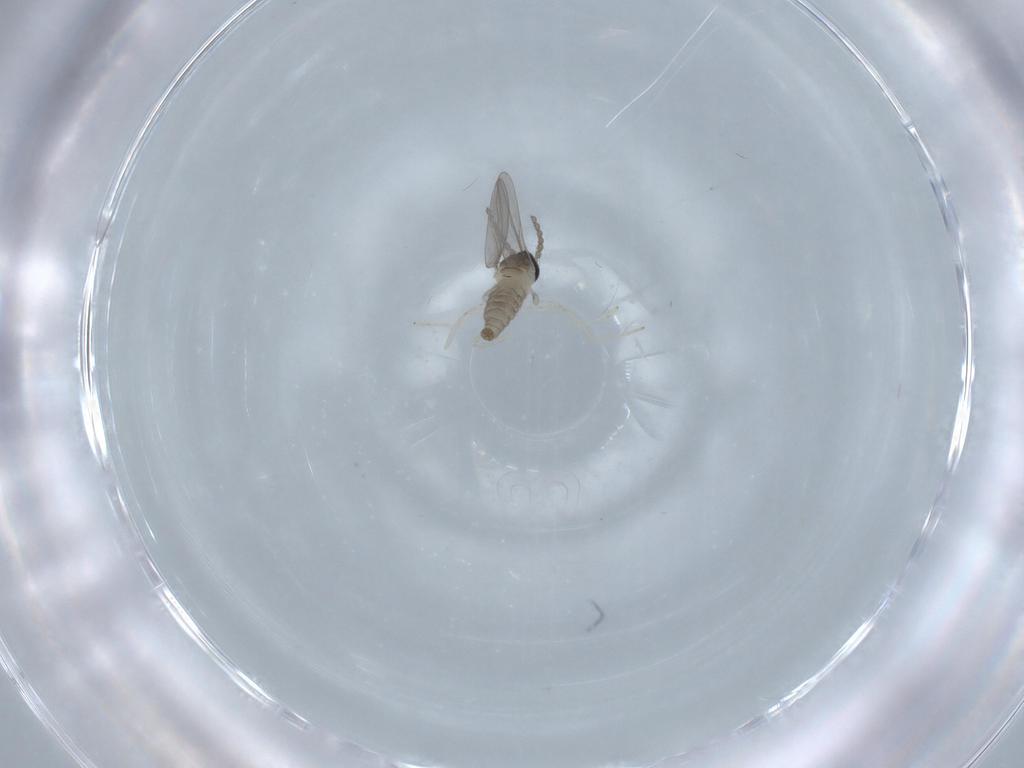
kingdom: Animalia
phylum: Arthropoda
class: Insecta
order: Diptera
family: Cecidomyiidae
